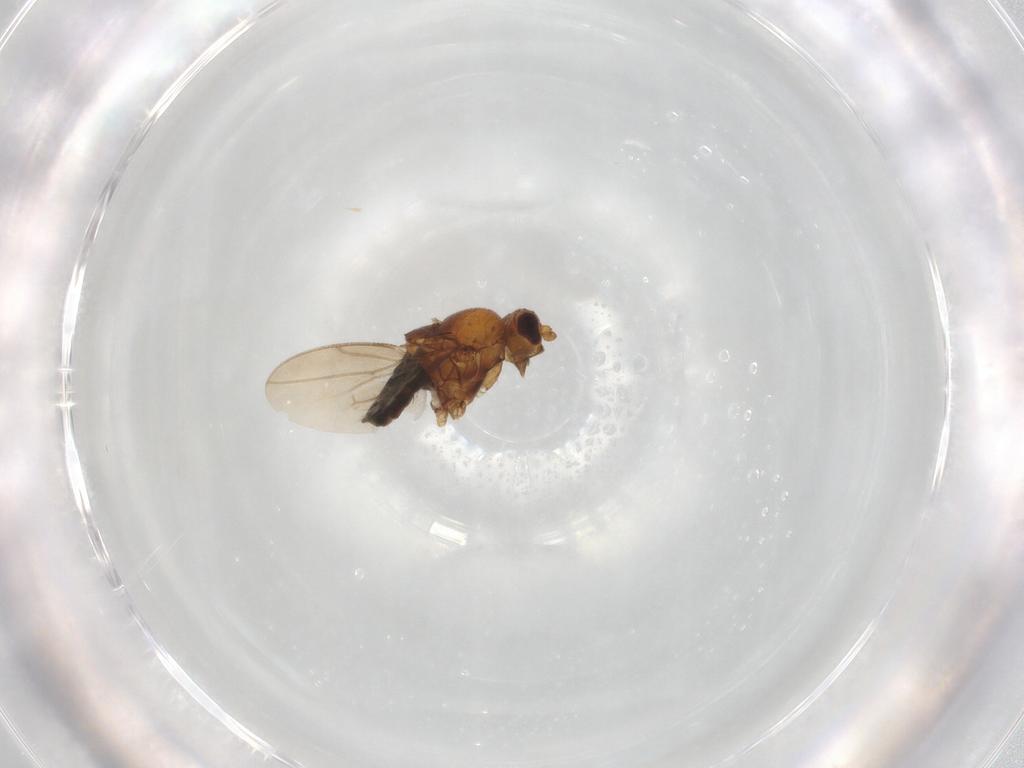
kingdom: Animalia
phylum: Arthropoda
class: Insecta
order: Diptera
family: Sphaeroceridae
